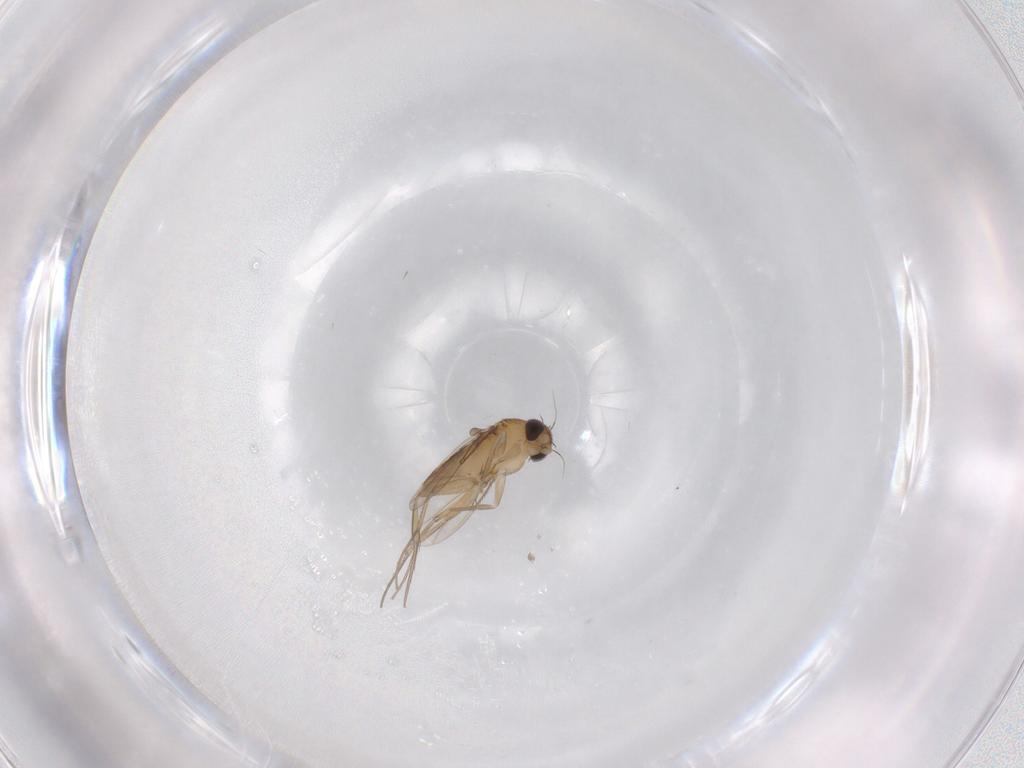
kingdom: Animalia
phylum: Arthropoda
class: Insecta
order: Diptera
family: Phoridae
